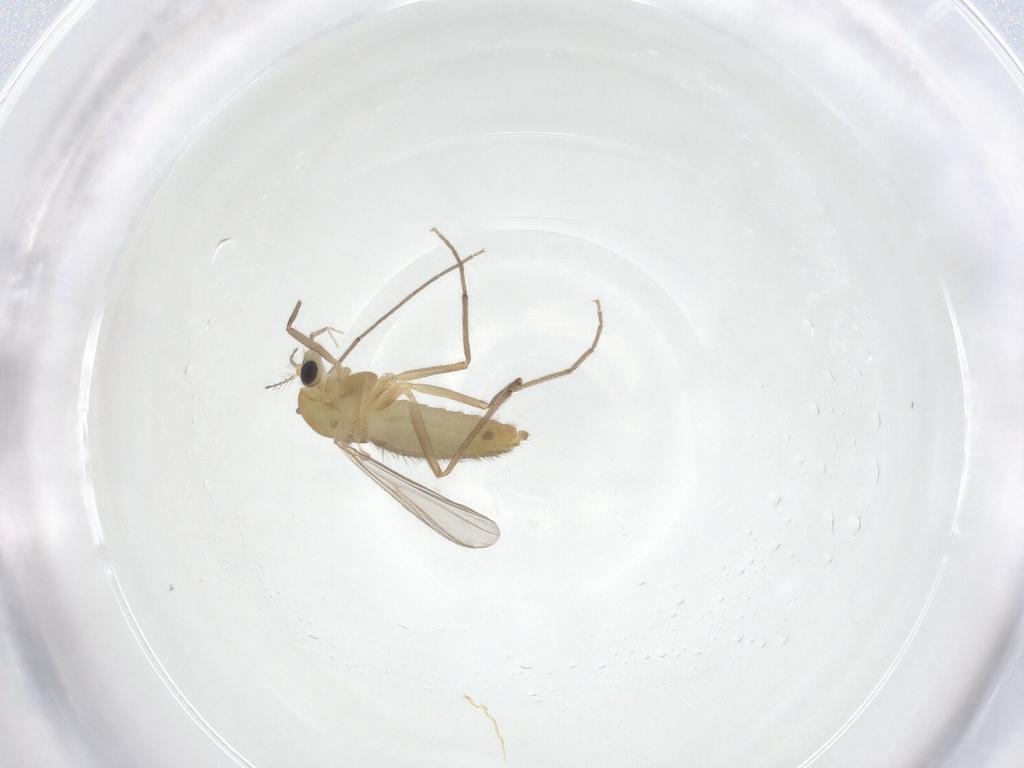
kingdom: Animalia
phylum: Arthropoda
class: Insecta
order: Diptera
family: Chironomidae
